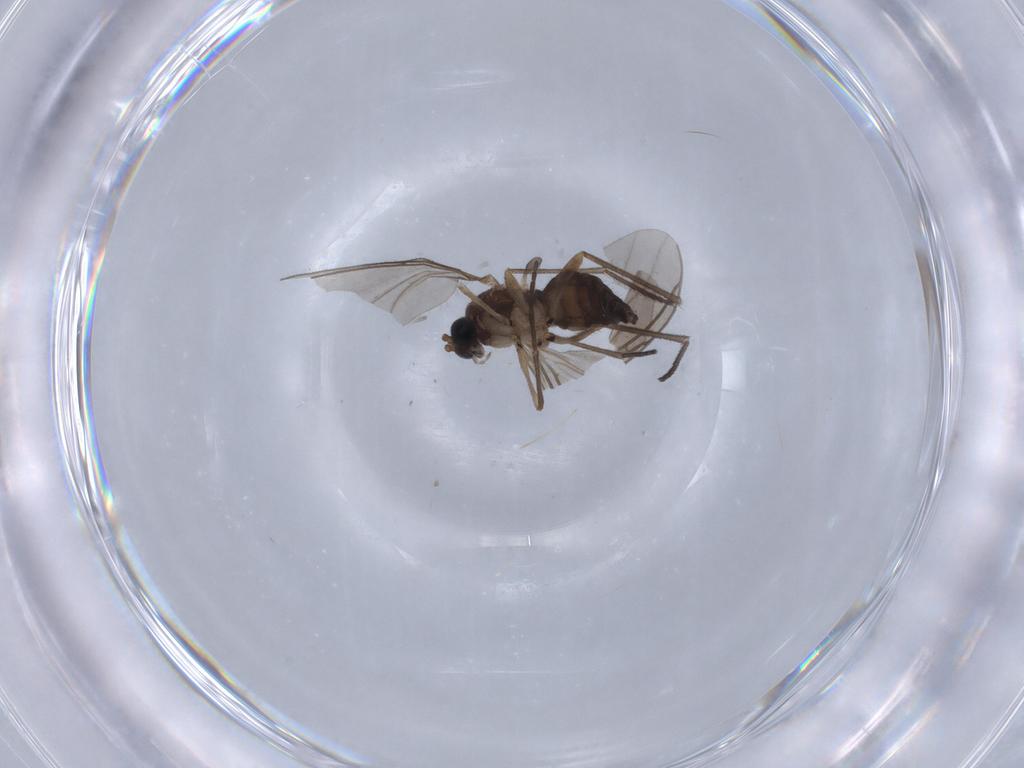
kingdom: Animalia
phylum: Arthropoda
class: Insecta
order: Diptera
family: Sciaridae
